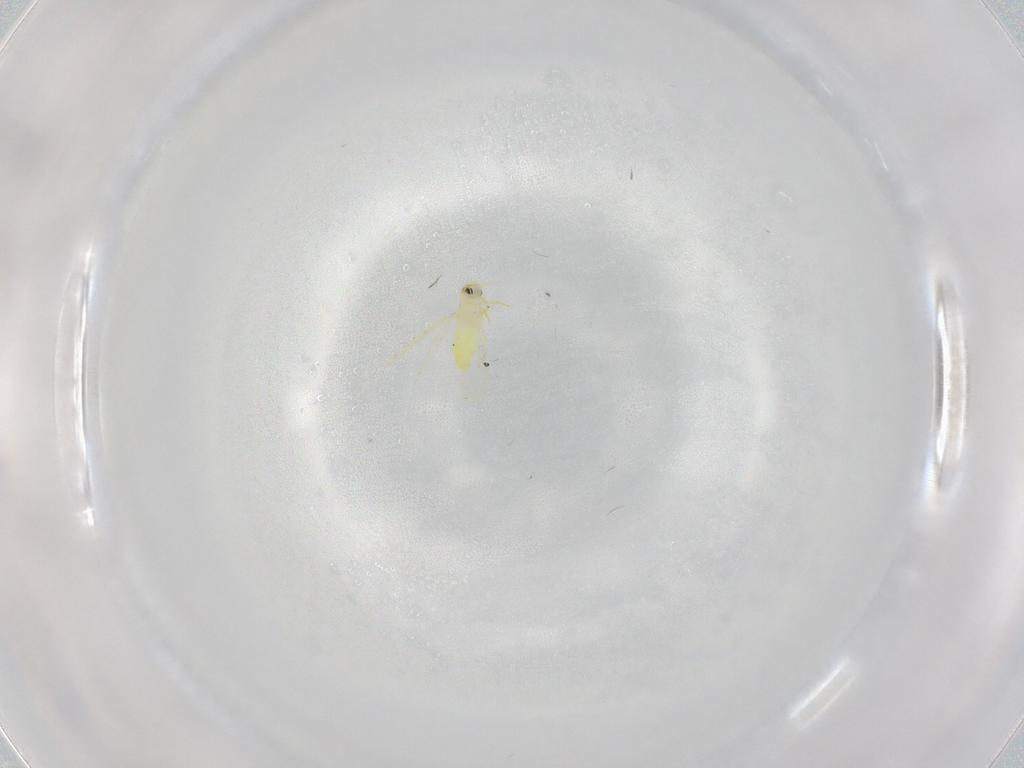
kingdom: Animalia
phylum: Arthropoda
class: Insecta
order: Hemiptera
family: Aleyrodidae
